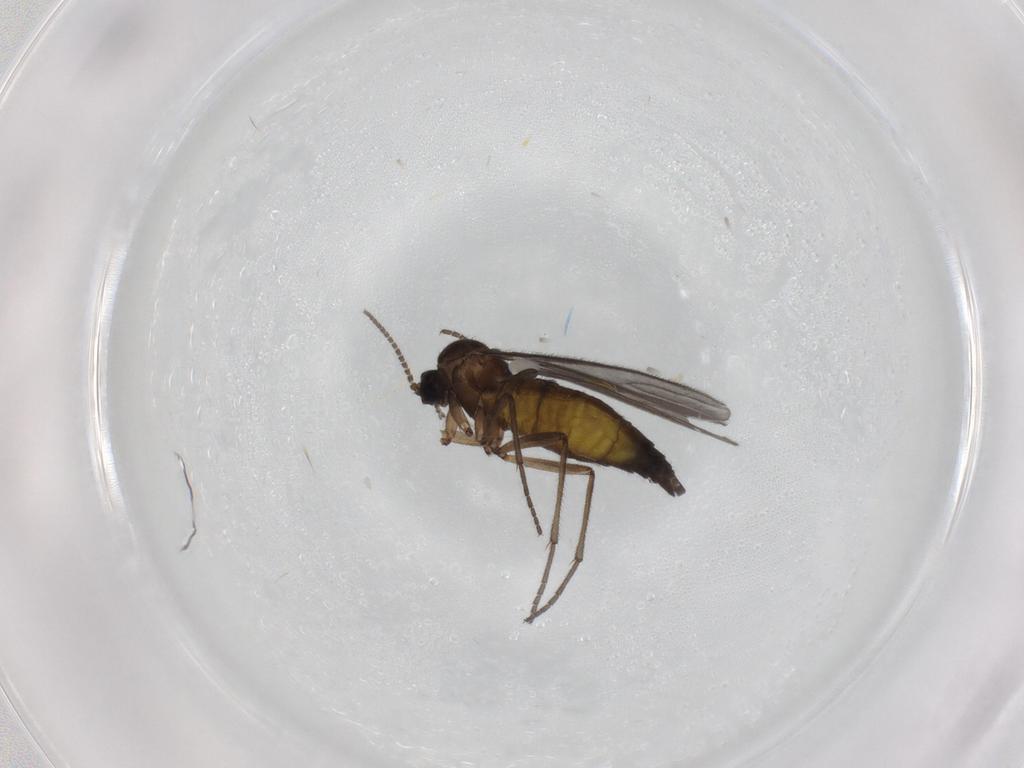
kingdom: Animalia
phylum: Arthropoda
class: Insecta
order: Diptera
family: Sciaridae
